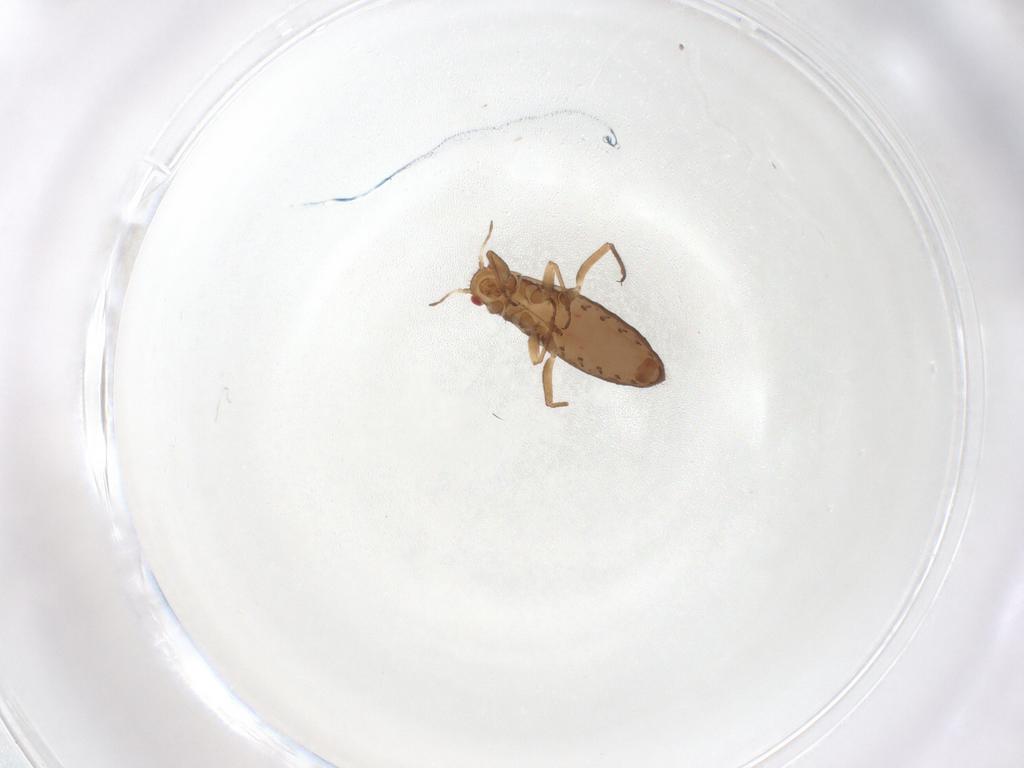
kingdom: Animalia
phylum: Arthropoda
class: Insecta
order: Hemiptera
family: Lachnidae
